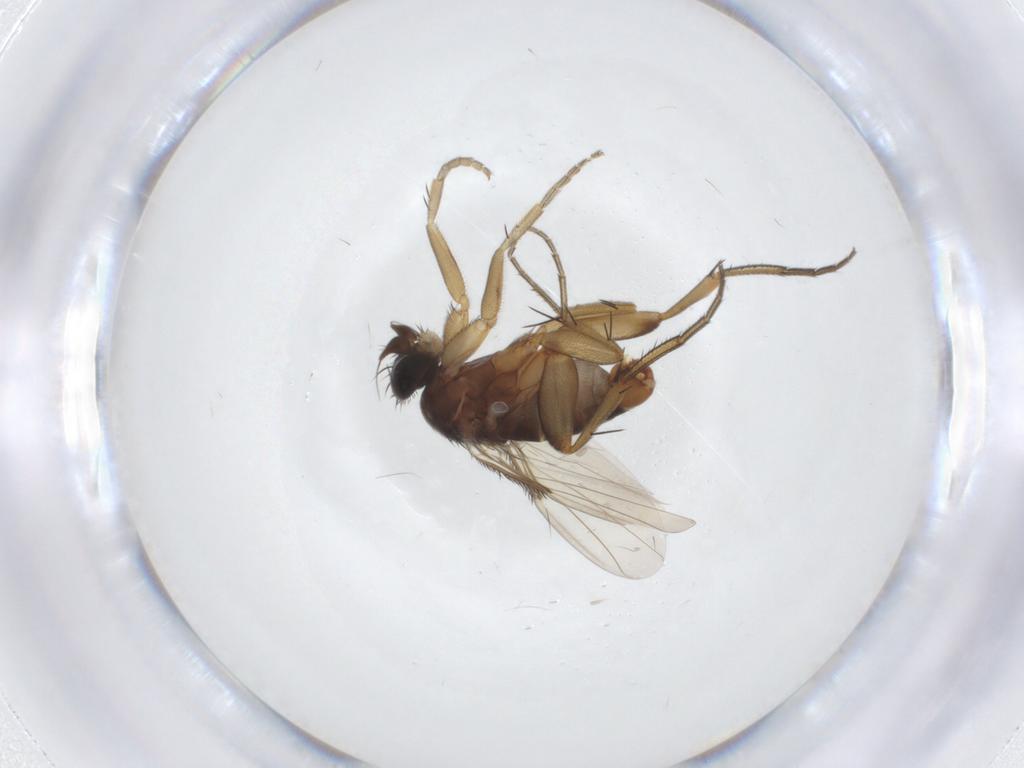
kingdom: Animalia
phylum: Arthropoda
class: Insecta
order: Diptera
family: Phoridae
